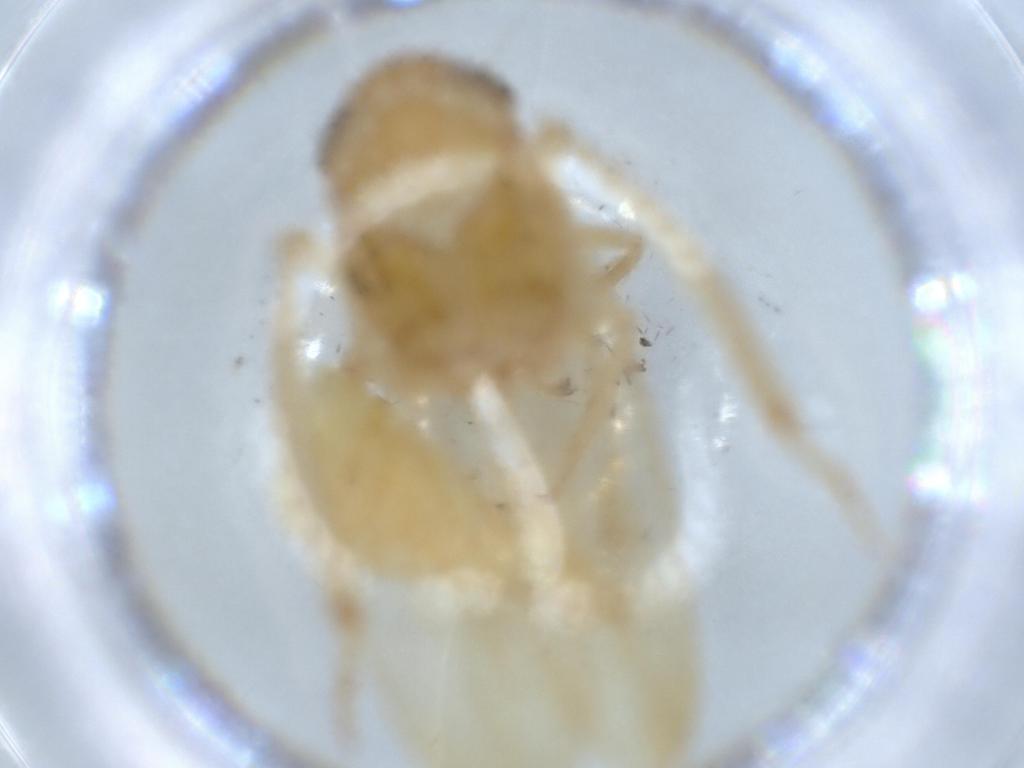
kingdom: Animalia
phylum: Arthropoda
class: Insecta
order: Hemiptera
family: Cicadellidae
